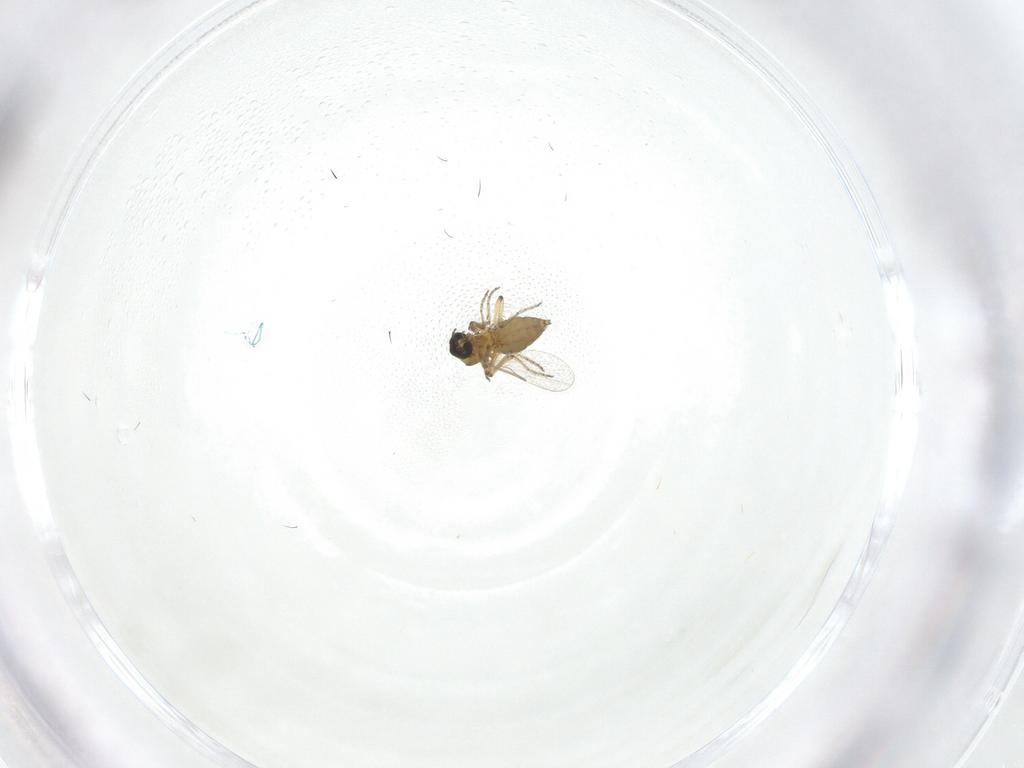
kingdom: Animalia
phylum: Arthropoda
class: Insecta
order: Diptera
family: Ceratopogonidae
